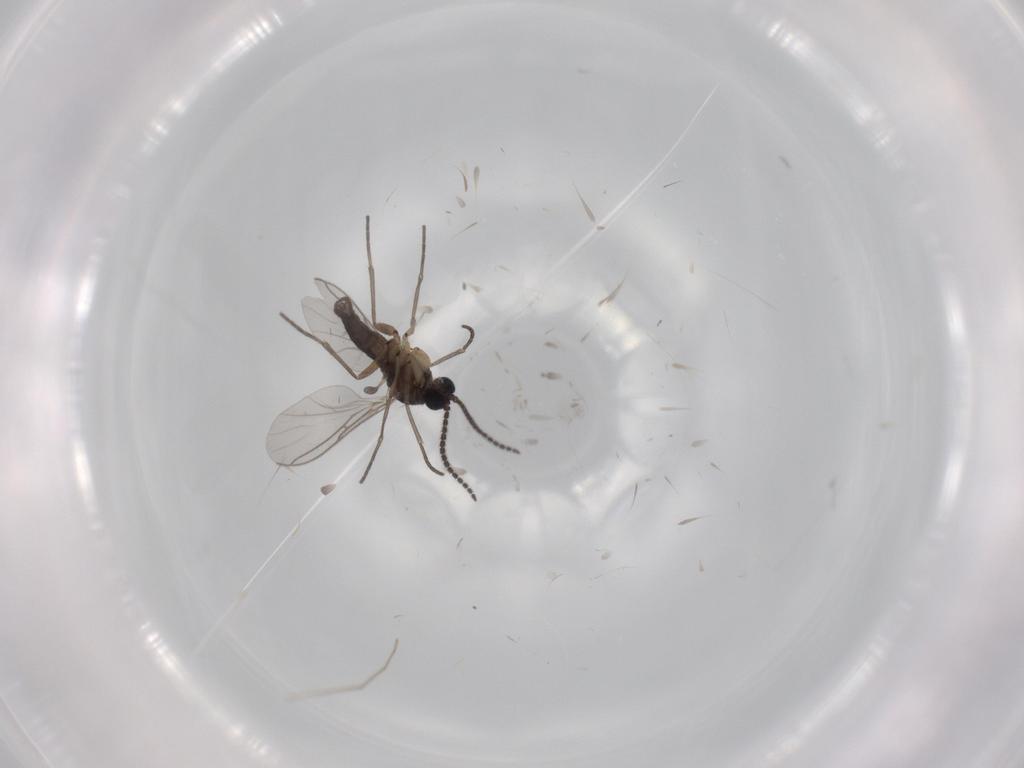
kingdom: Animalia
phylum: Arthropoda
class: Insecta
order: Diptera
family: Sciaridae
